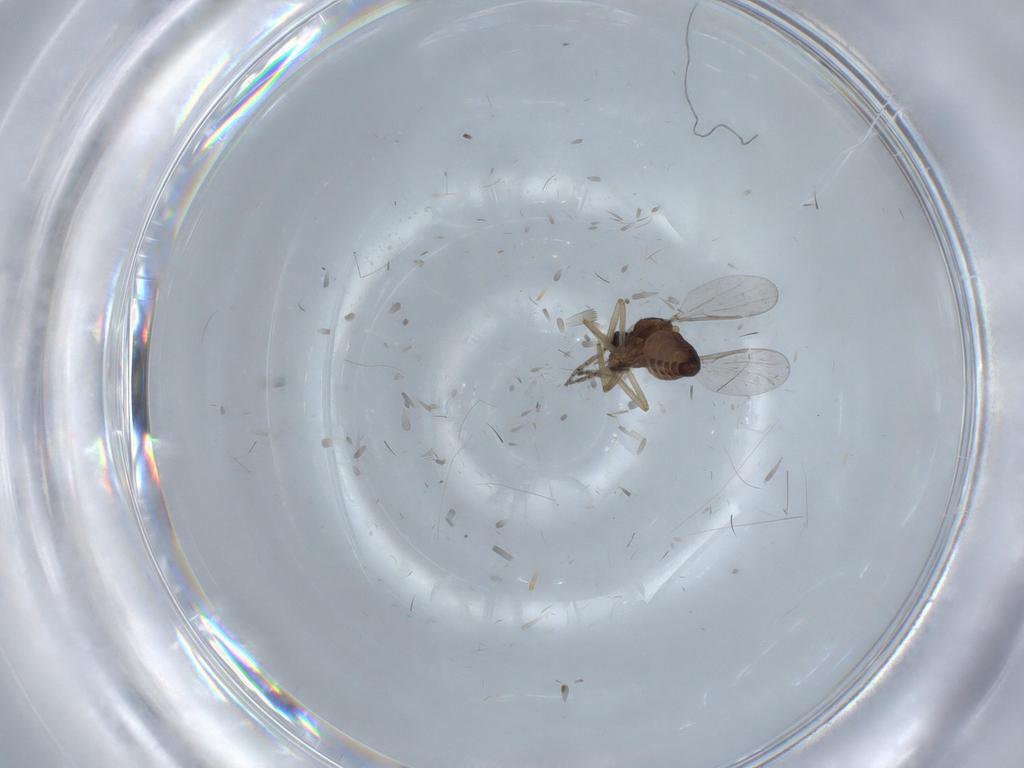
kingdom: Animalia
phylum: Arthropoda
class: Insecta
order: Diptera
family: Ceratopogonidae
